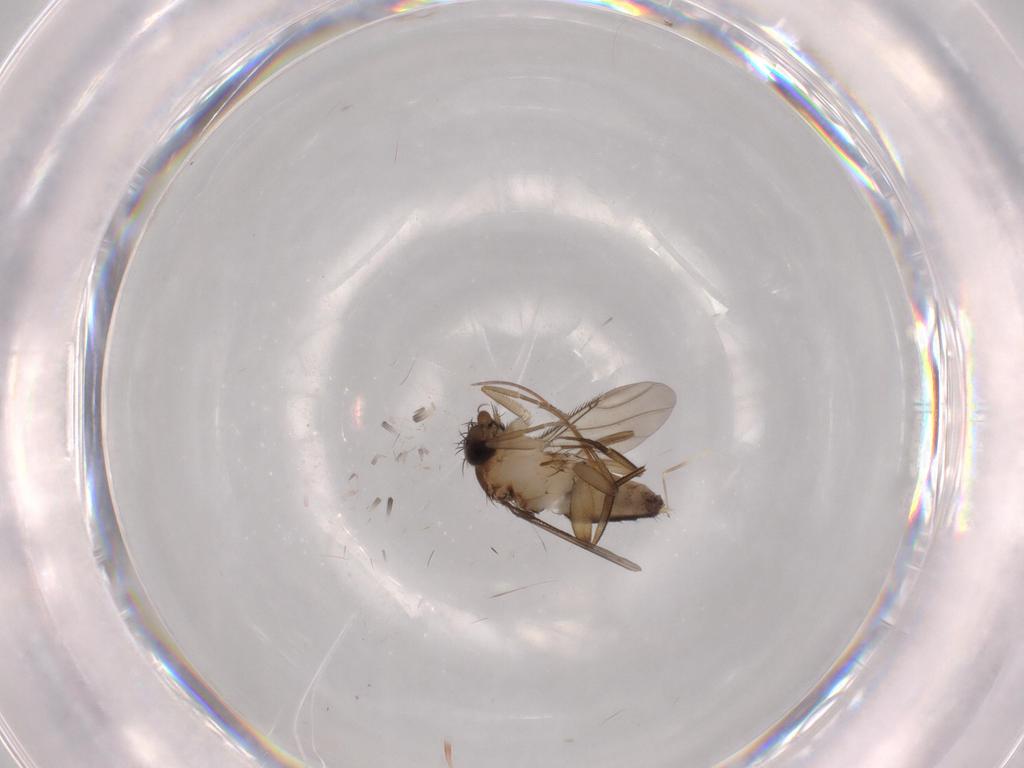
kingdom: Animalia
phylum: Arthropoda
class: Insecta
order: Diptera
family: Phoridae
